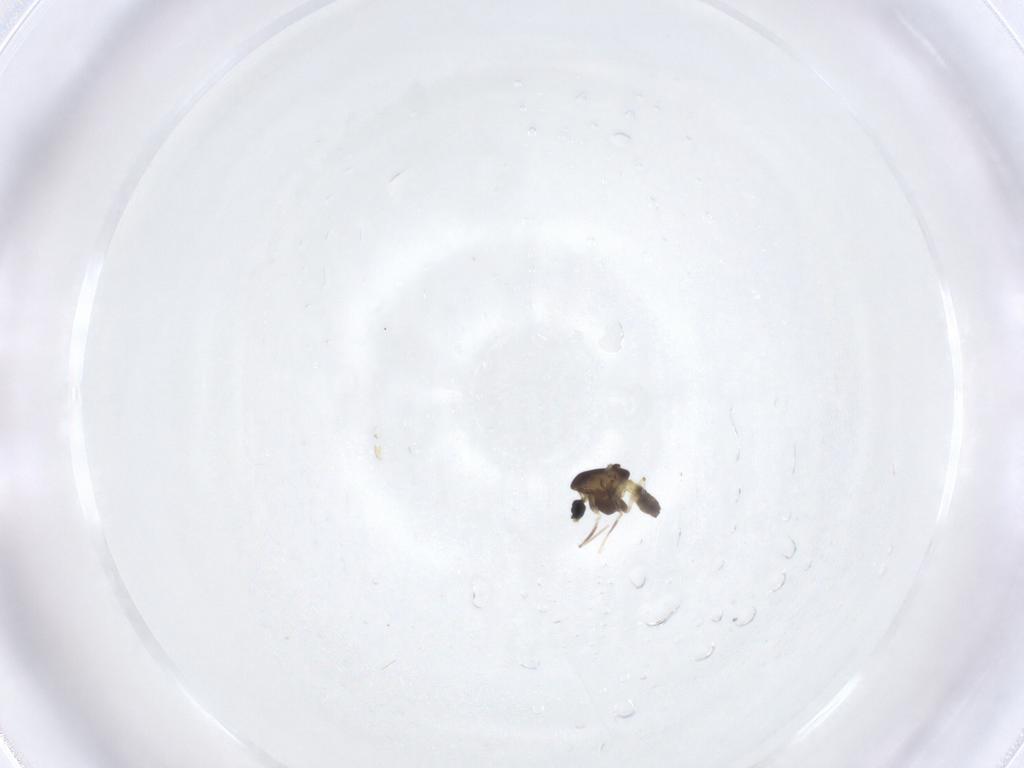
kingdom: Animalia
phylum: Arthropoda
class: Insecta
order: Diptera
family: Chironomidae
